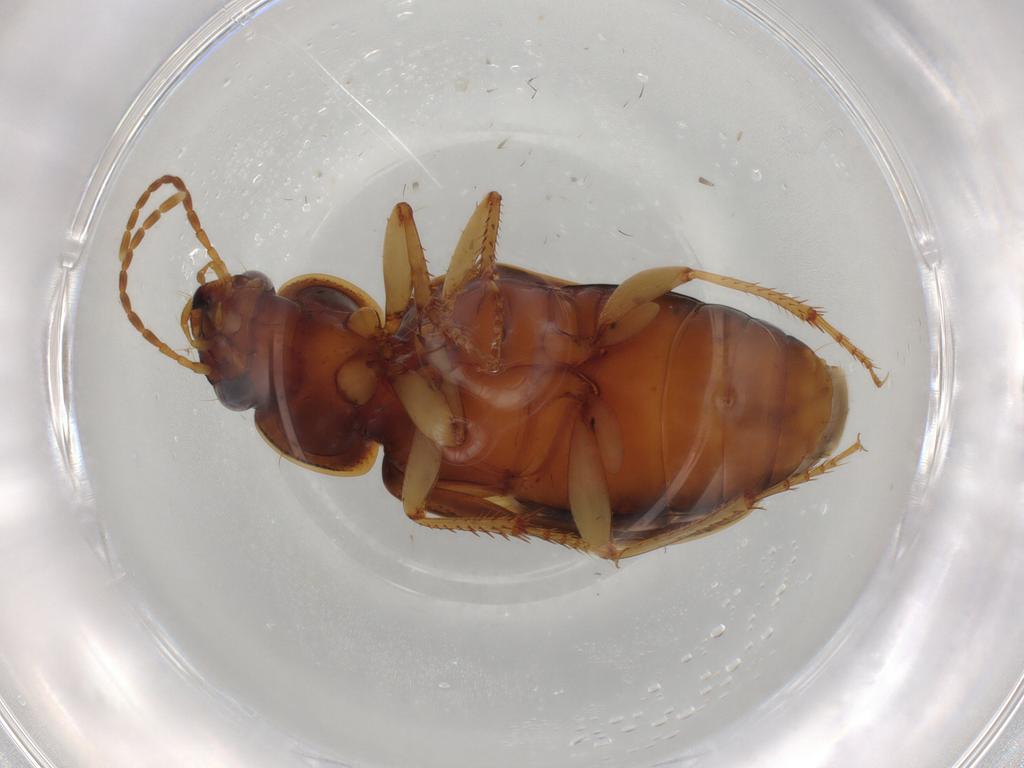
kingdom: Animalia
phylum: Arthropoda
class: Insecta
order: Coleoptera
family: Carabidae
